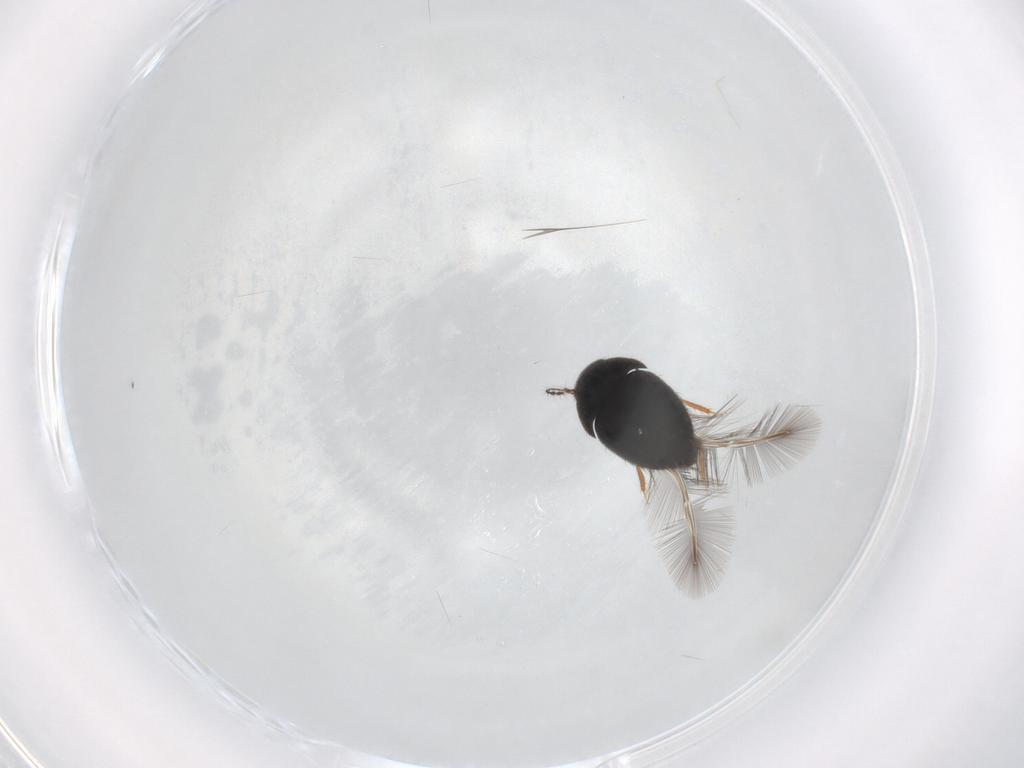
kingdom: Animalia
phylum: Arthropoda
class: Insecta
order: Coleoptera
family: Ptiliidae
